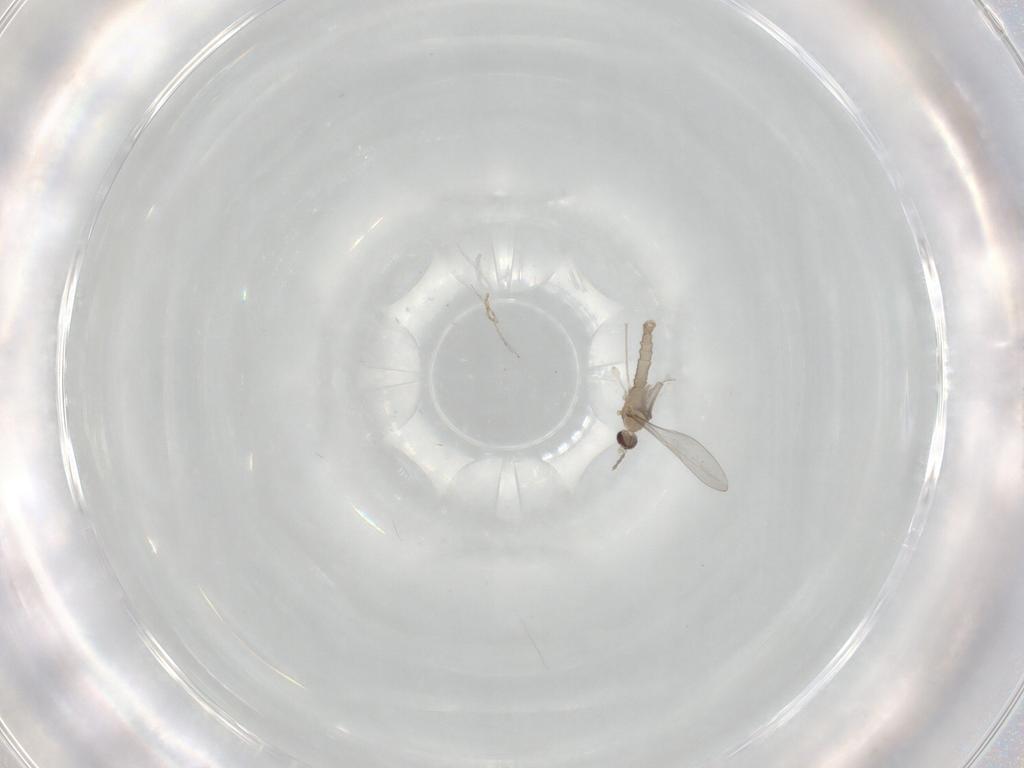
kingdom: Animalia
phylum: Arthropoda
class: Insecta
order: Diptera
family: Cecidomyiidae
